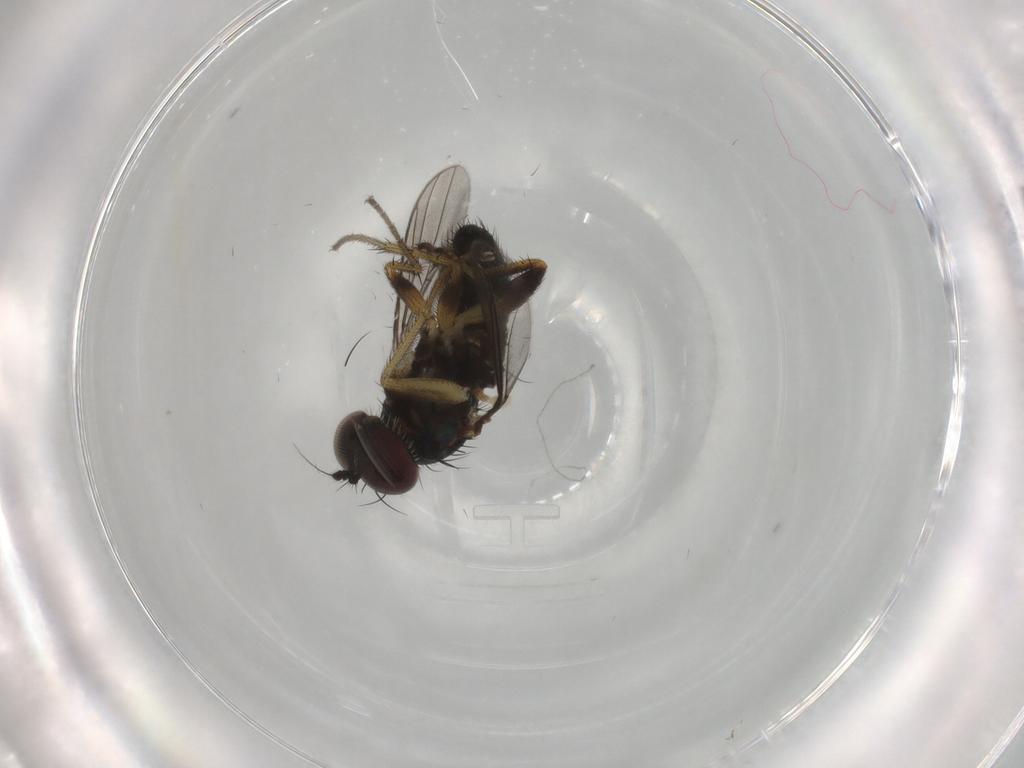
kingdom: Animalia
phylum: Arthropoda
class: Insecta
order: Diptera
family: Dolichopodidae
